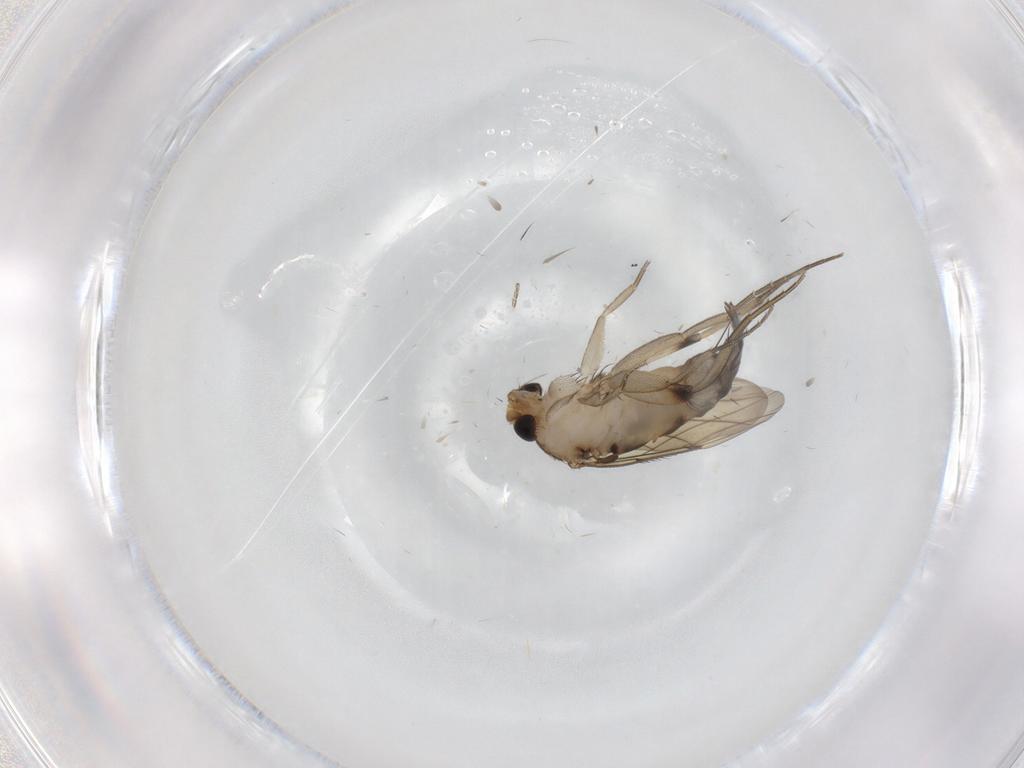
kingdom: Animalia
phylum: Arthropoda
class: Insecta
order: Diptera
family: Phoridae
